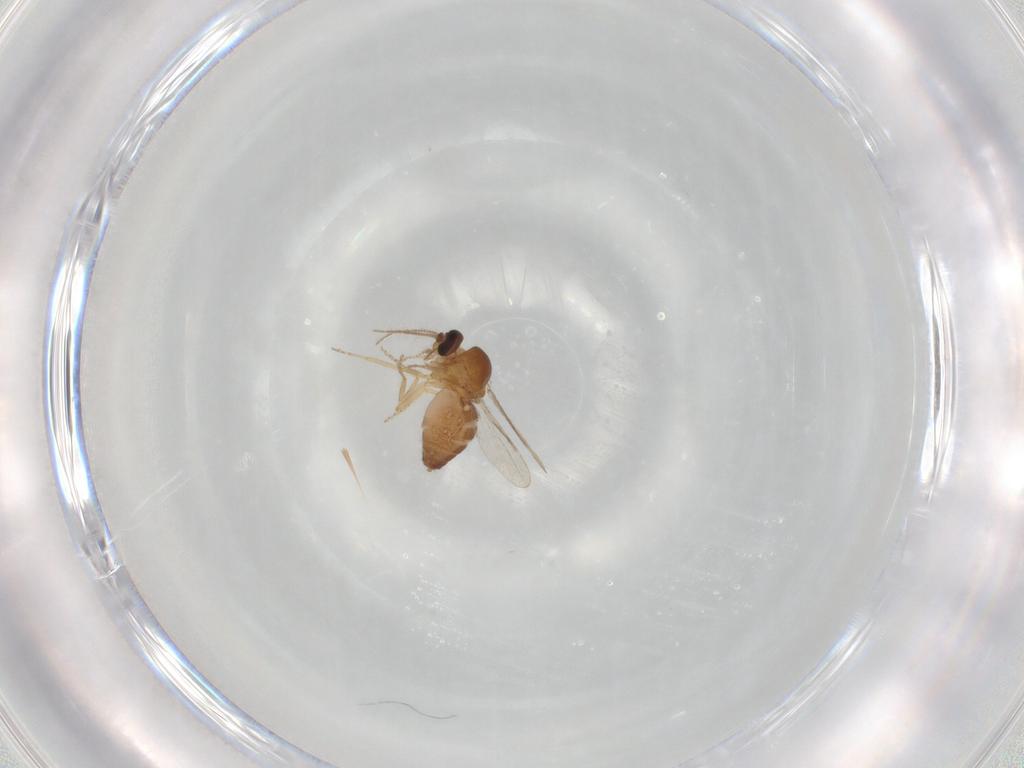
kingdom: Animalia
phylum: Arthropoda
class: Insecta
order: Diptera
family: Ceratopogonidae
